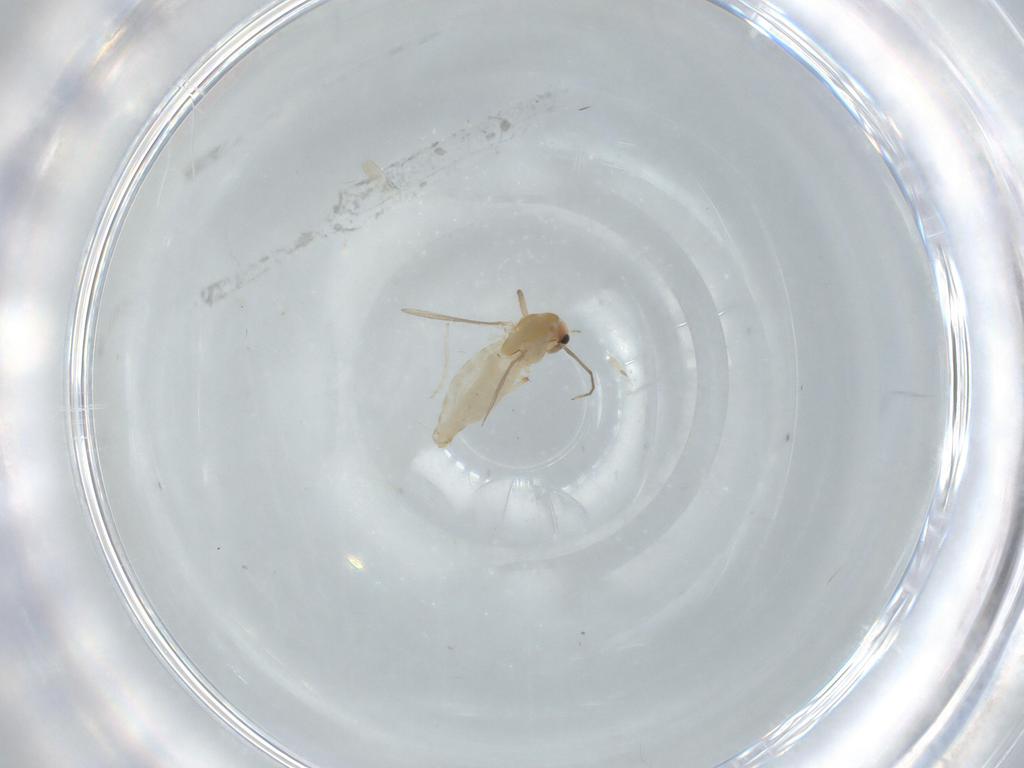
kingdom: Animalia
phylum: Arthropoda
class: Insecta
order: Diptera
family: Chironomidae
